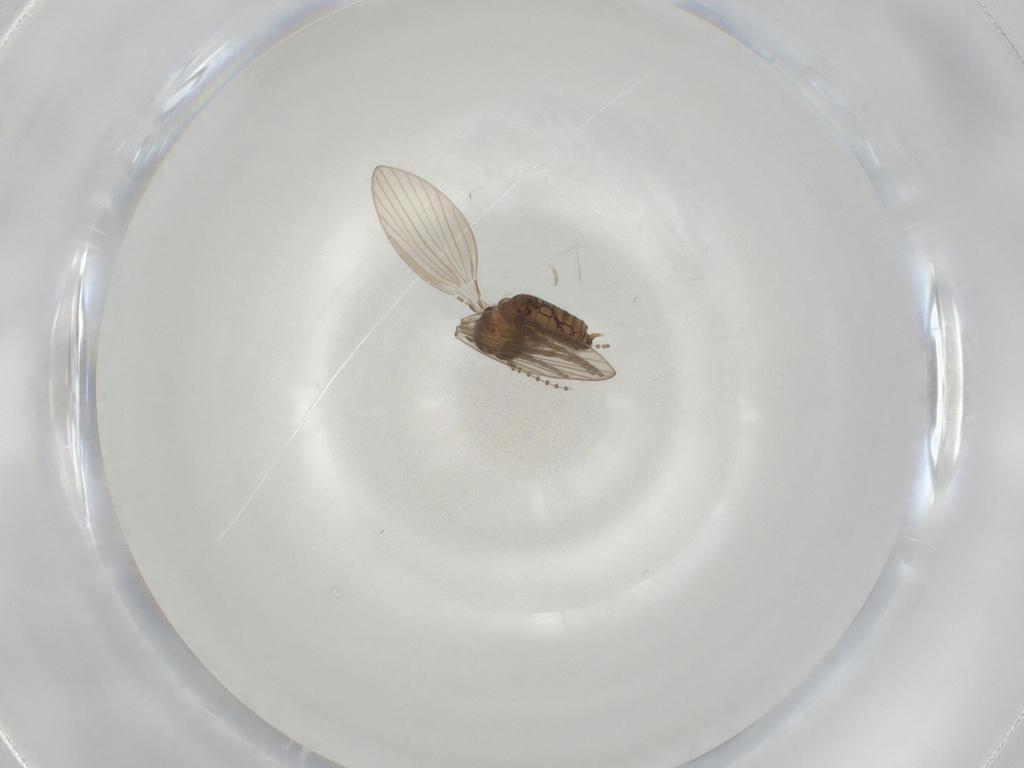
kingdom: Animalia
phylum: Arthropoda
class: Insecta
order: Diptera
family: Psychodidae
